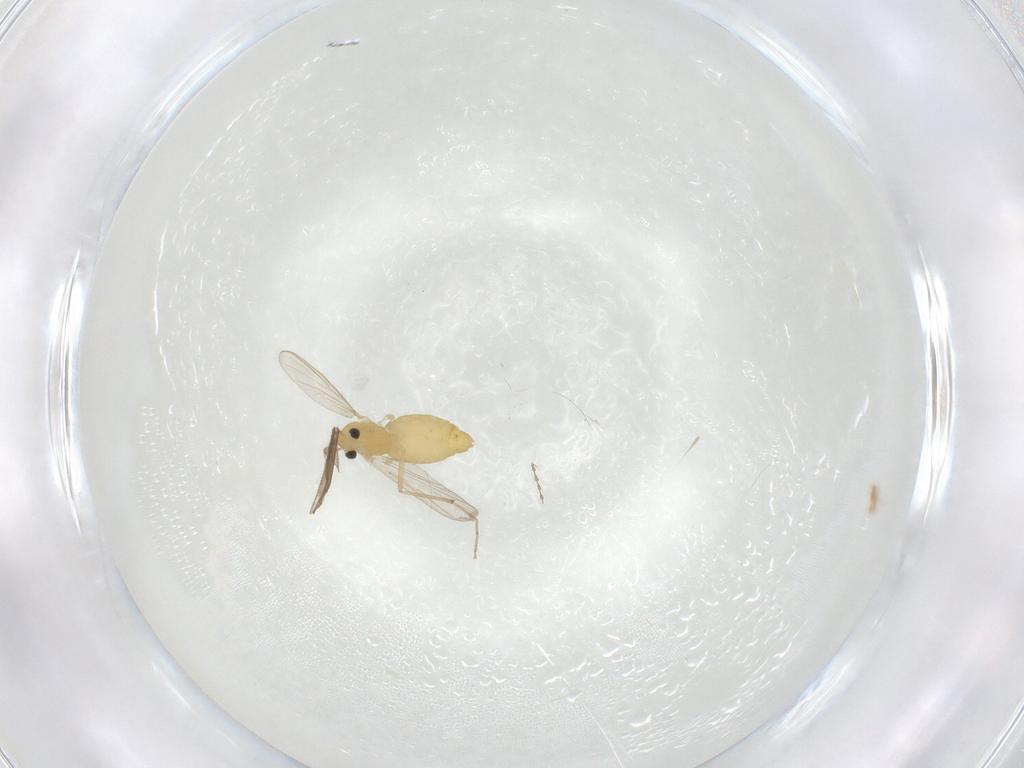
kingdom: Animalia
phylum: Arthropoda
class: Insecta
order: Diptera
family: Chironomidae
